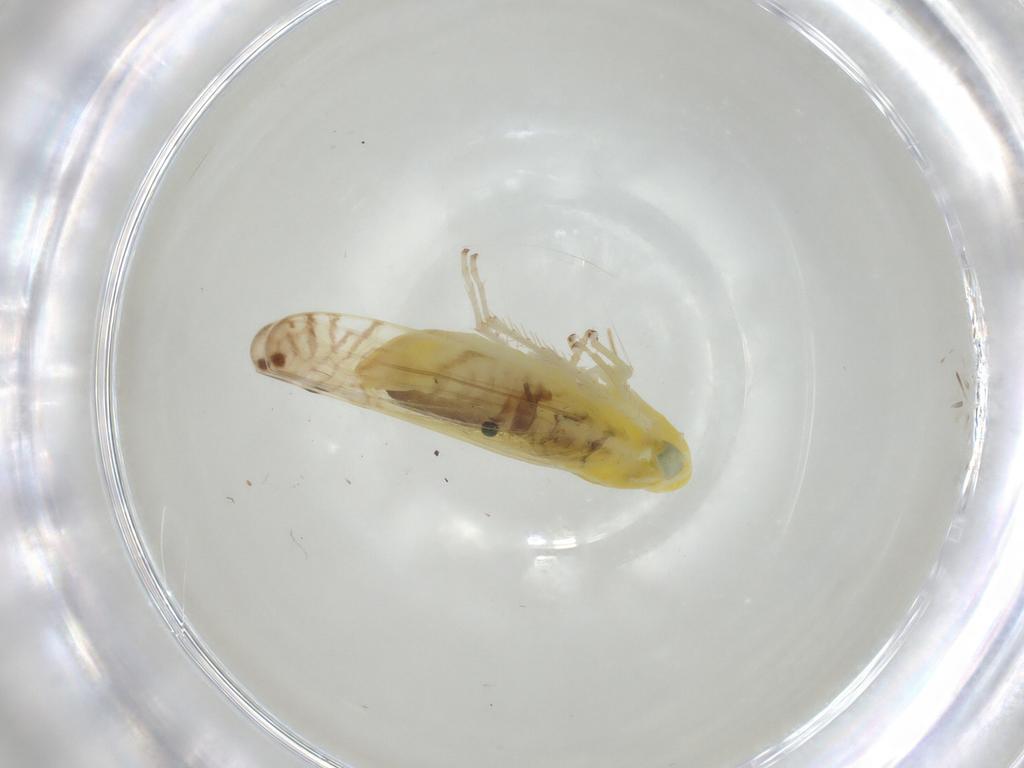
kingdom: Animalia
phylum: Arthropoda
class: Insecta
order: Hemiptera
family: Cicadellidae
